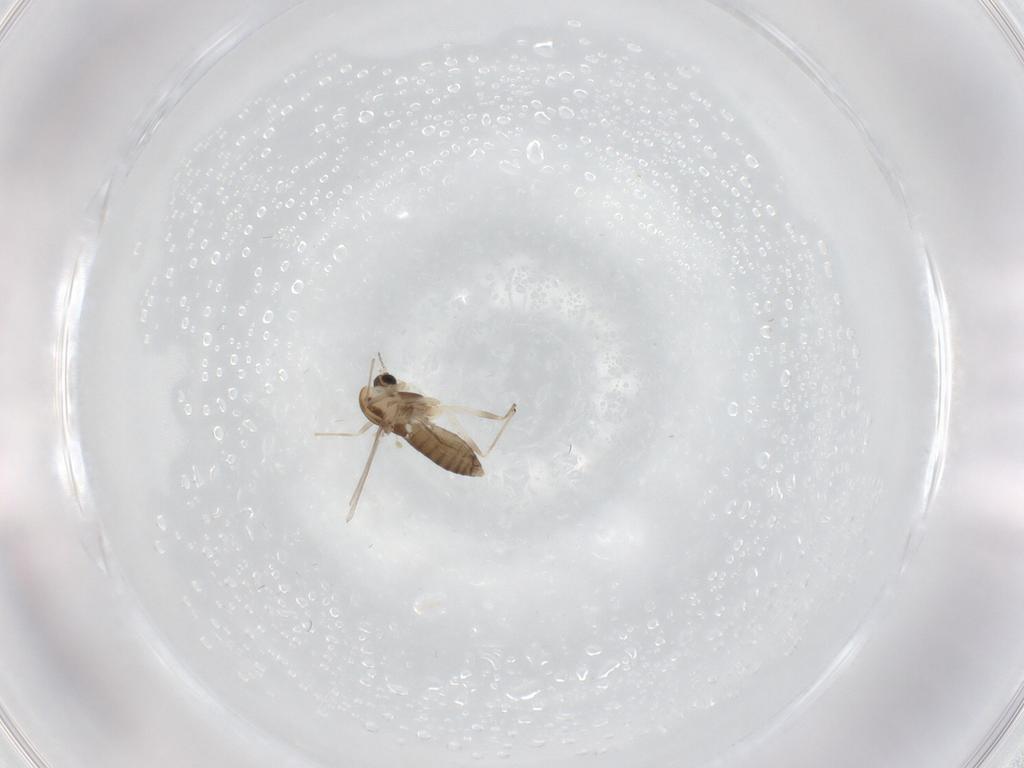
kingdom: Animalia
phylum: Arthropoda
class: Insecta
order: Diptera
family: Chironomidae
